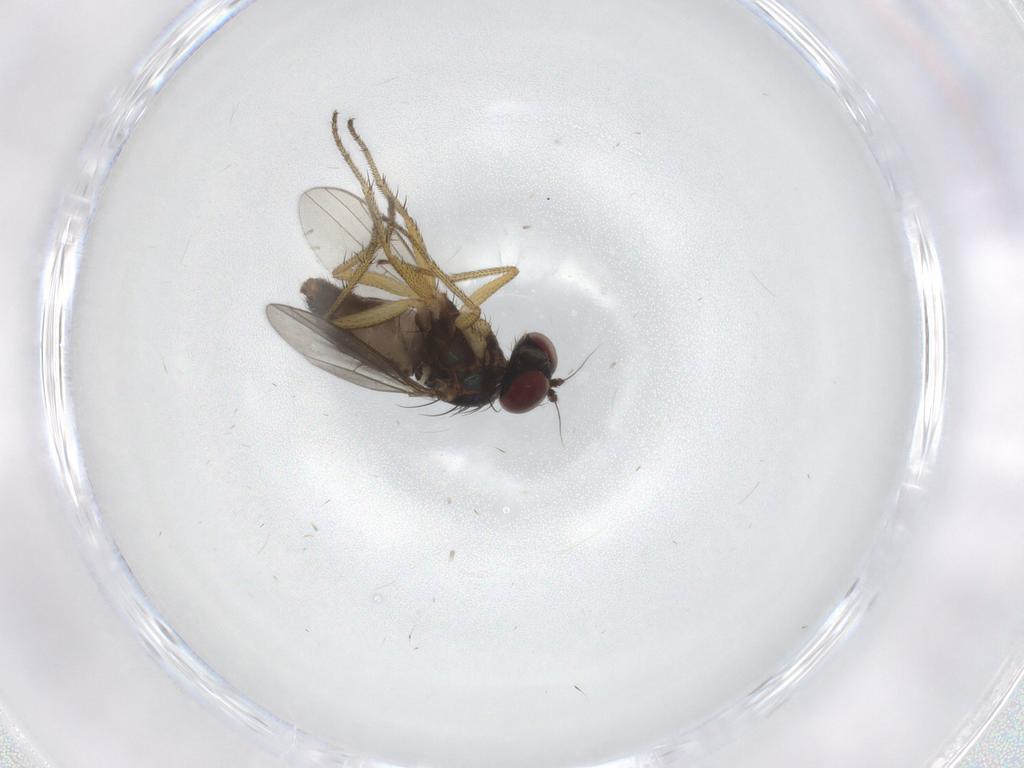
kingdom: Animalia
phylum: Arthropoda
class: Insecta
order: Diptera
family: Dolichopodidae
